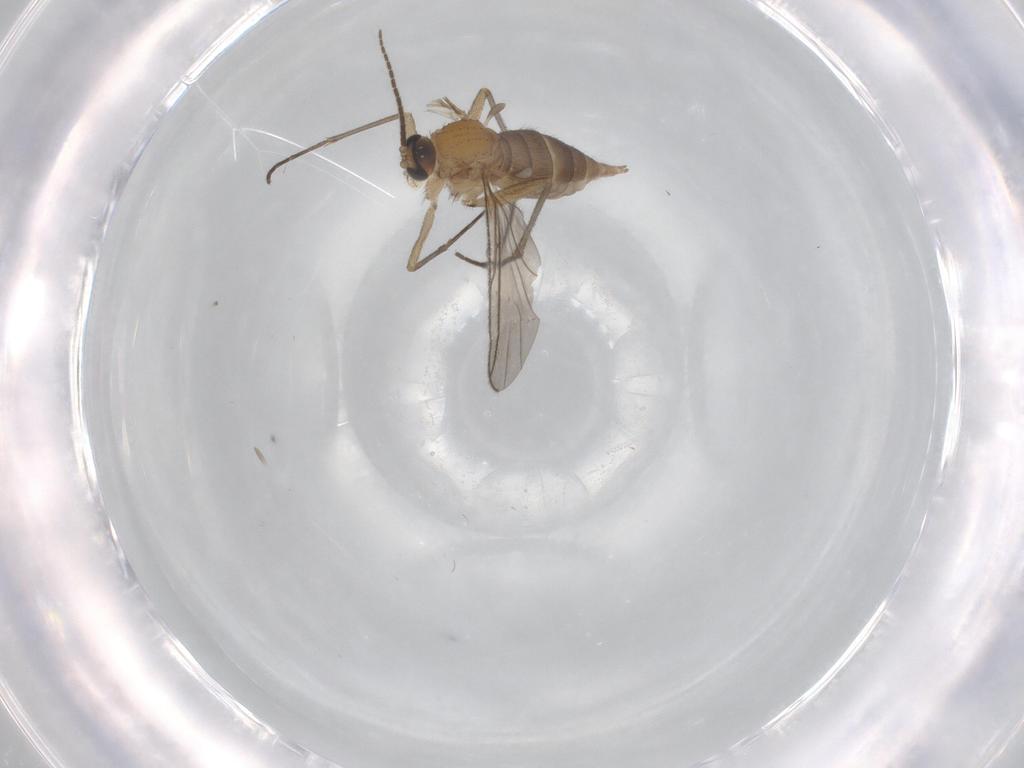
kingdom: Animalia
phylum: Arthropoda
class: Insecta
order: Diptera
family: Sciaridae
